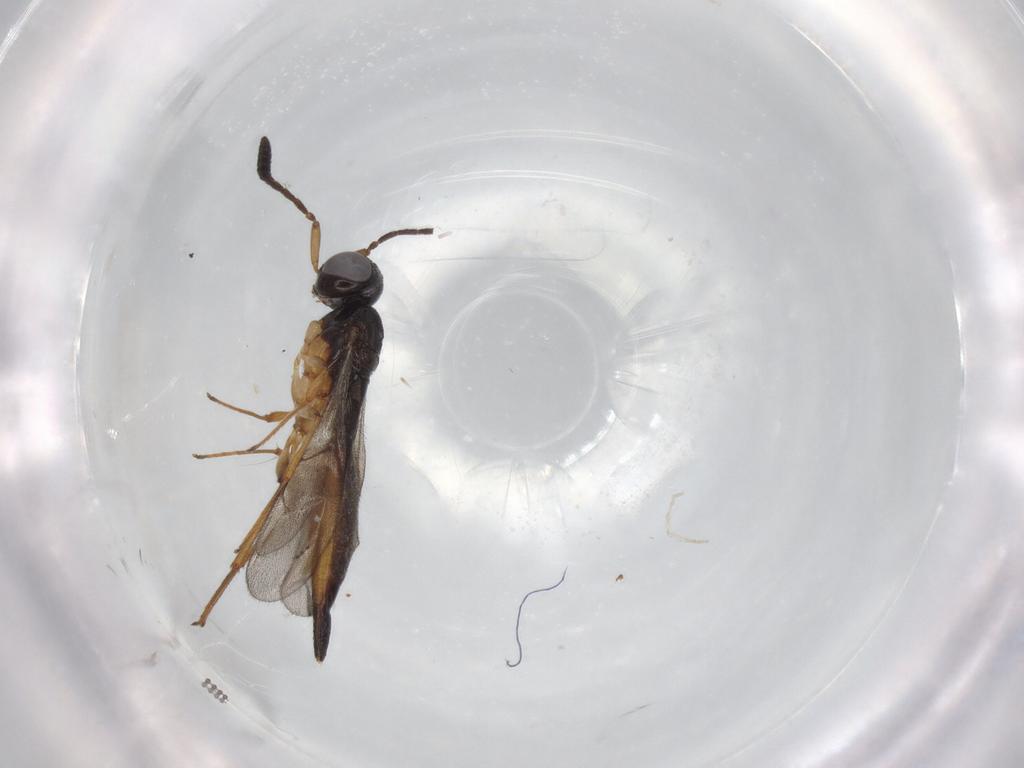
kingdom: Animalia
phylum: Arthropoda
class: Insecta
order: Hymenoptera
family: Scelionidae
